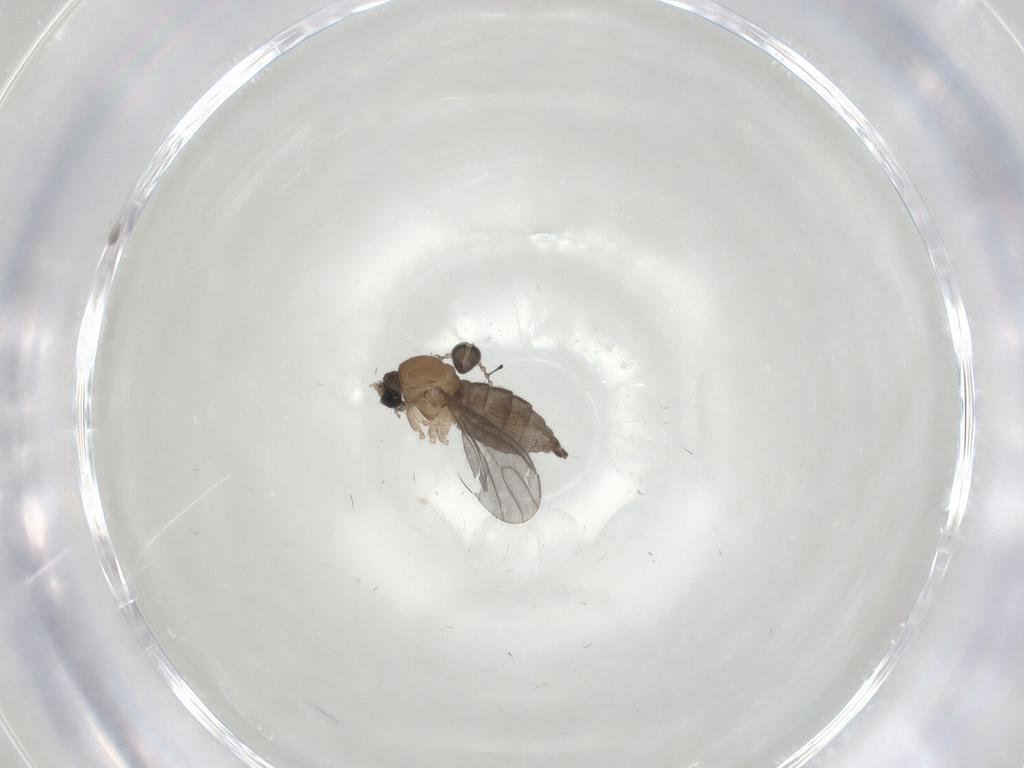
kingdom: Animalia
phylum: Arthropoda
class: Insecta
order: Diptera
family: Sciaridae
